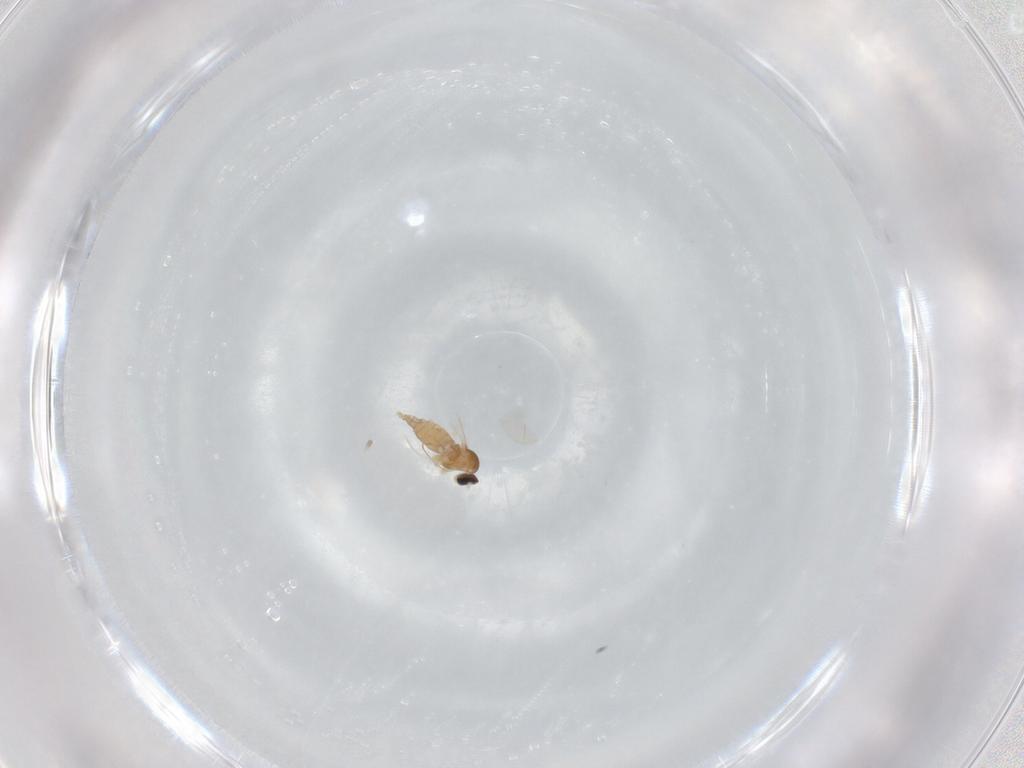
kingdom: Animalia
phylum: Arthropoda
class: Insecta
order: Diptera
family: Cecidomyiidae
